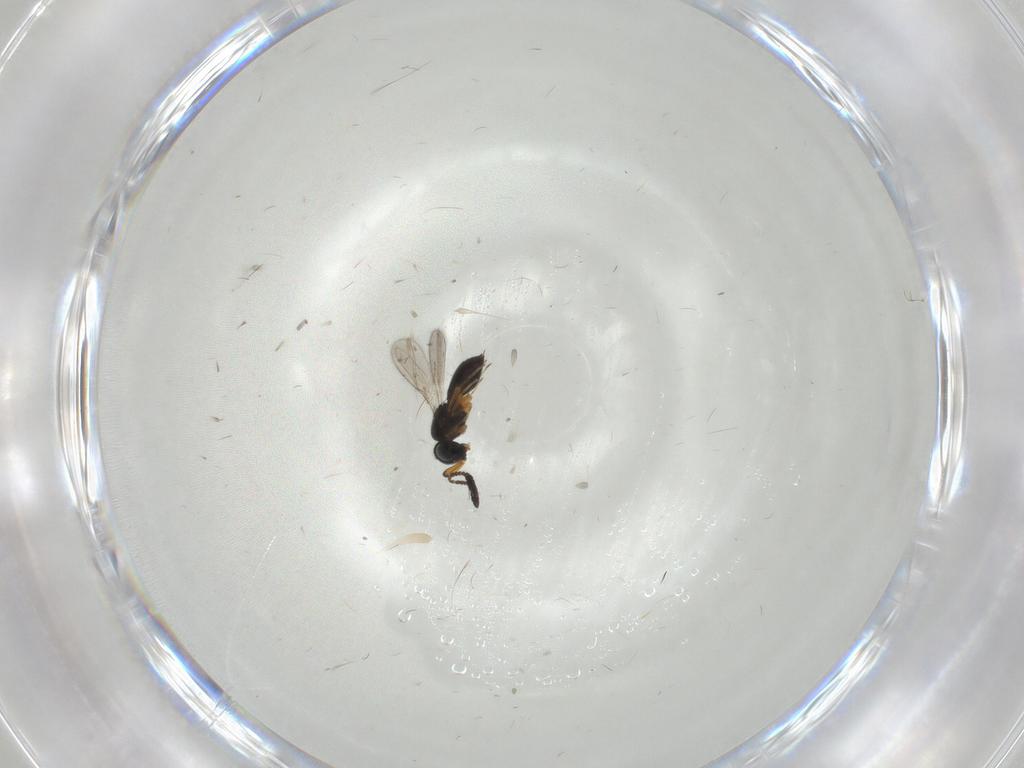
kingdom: Animalia
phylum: Arthropoda
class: Insecta
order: Hymenoptera
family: Scelionidae
